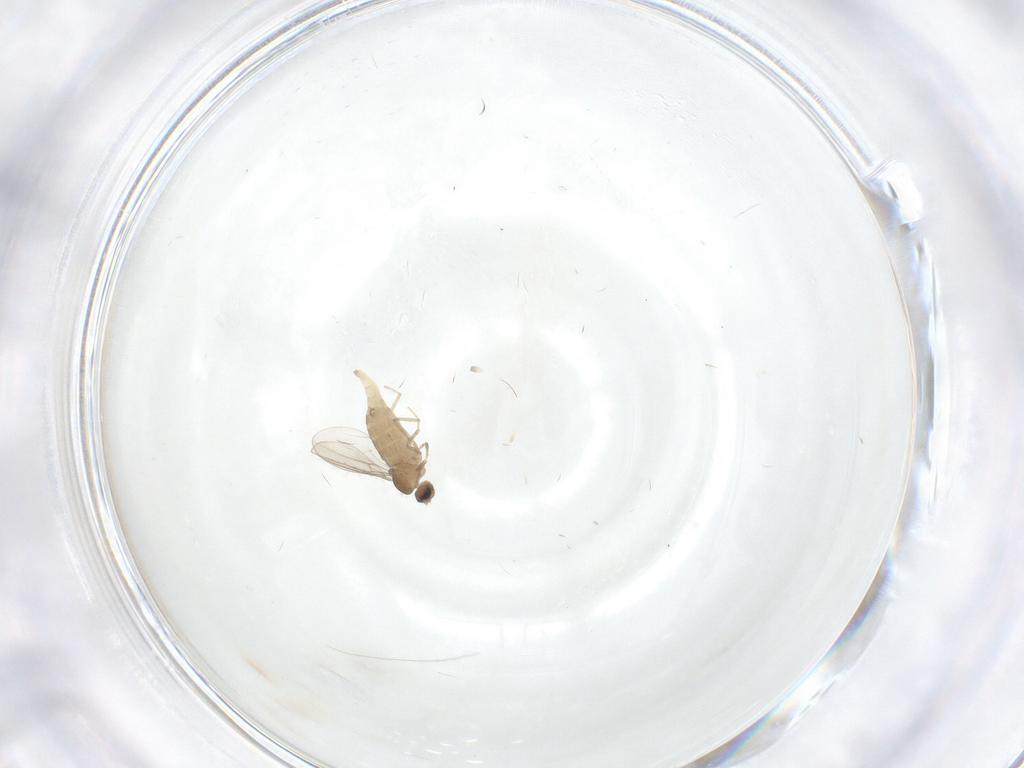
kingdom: Animalia
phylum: Arthropoda
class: Insecta
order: Diptera
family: Cecidomyiidae
